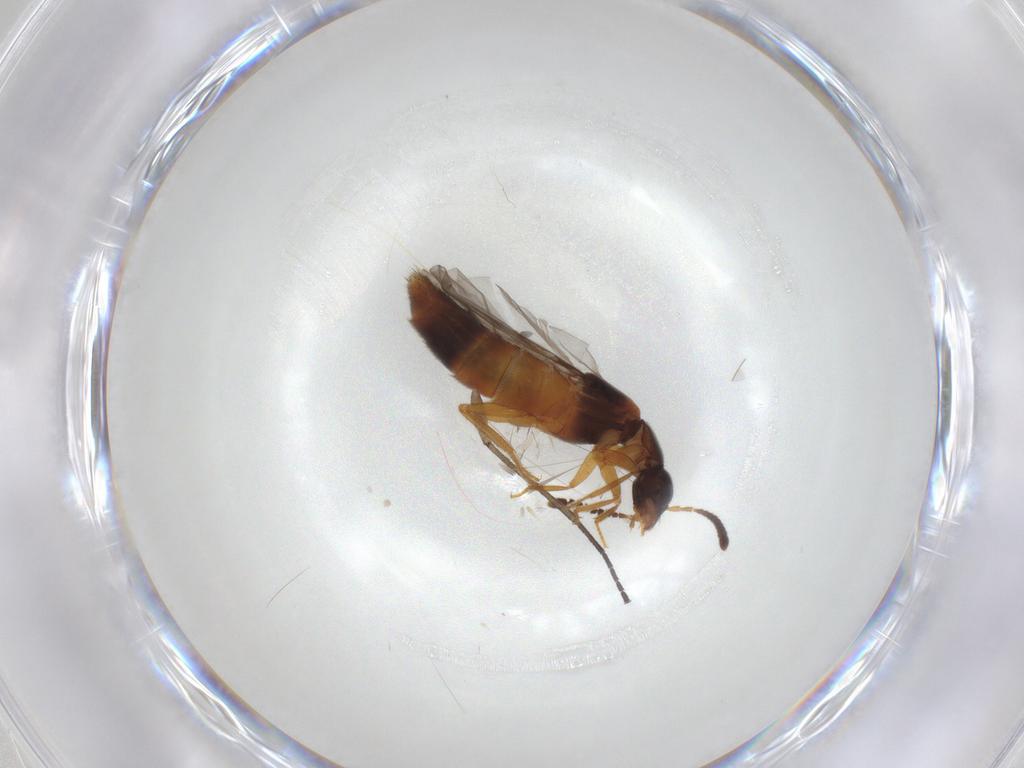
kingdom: Animalia
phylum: Arthropoda
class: Insecta
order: Coleoptera
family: Staphylinidae
